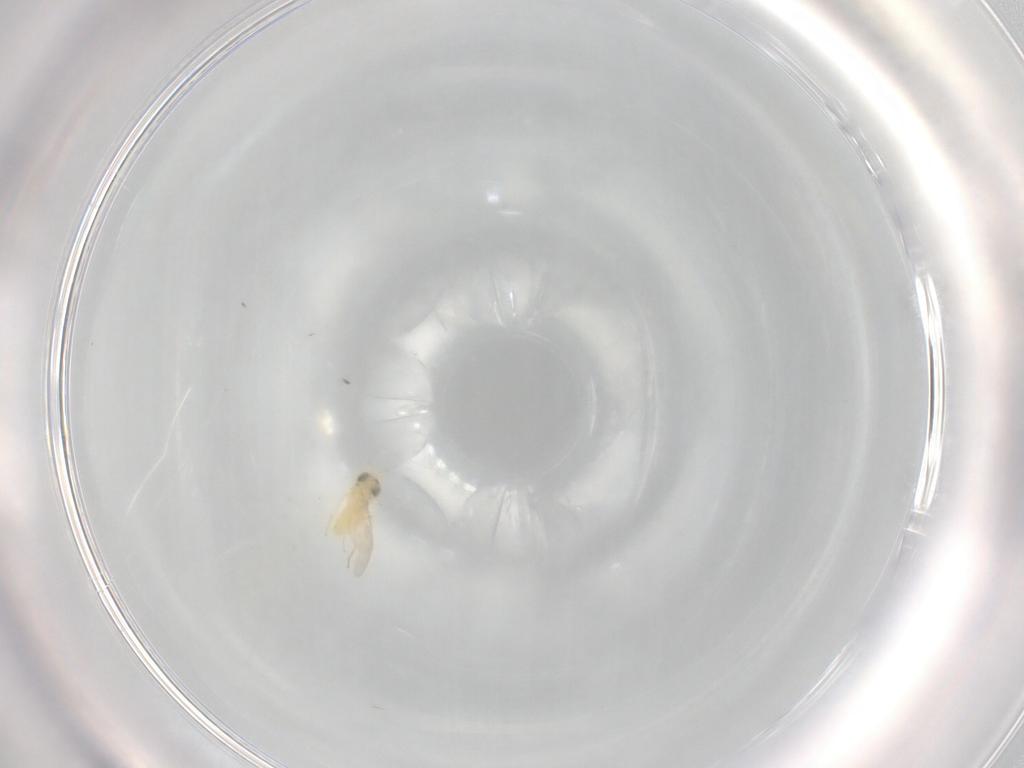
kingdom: Animalia
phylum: Arthropoda
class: Insecta
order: Hymenoptera
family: Aphelinidae
